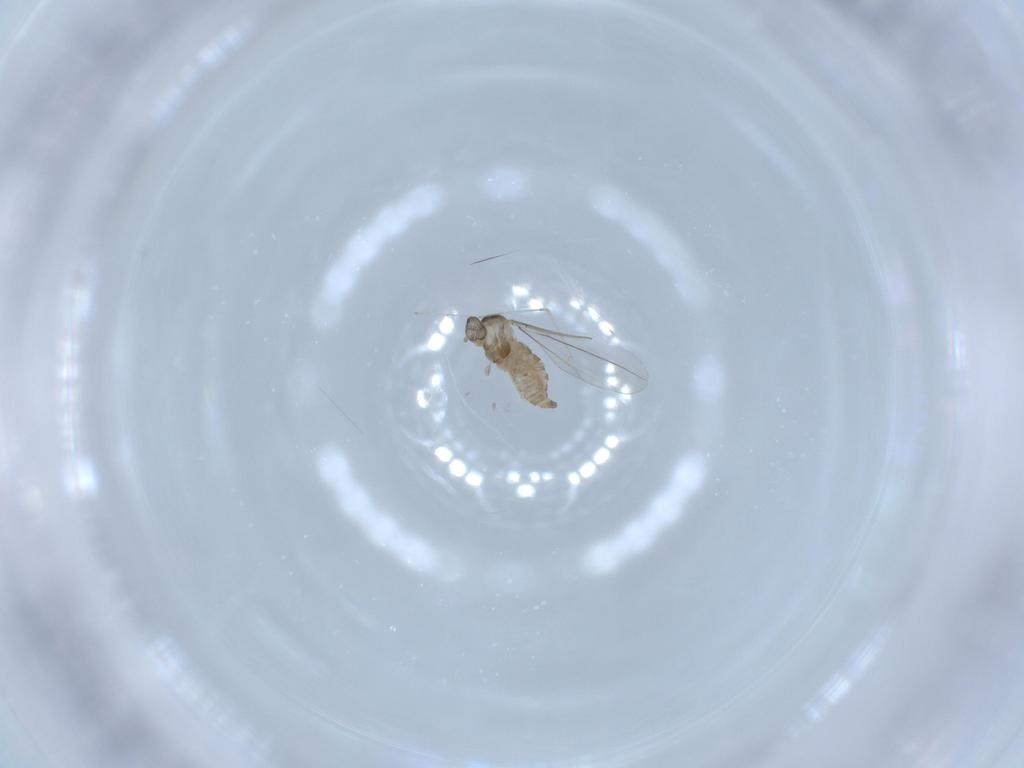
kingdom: Animalia
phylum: Arthropoda
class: Insecta
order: Diptera
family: Cecidomyiidae
